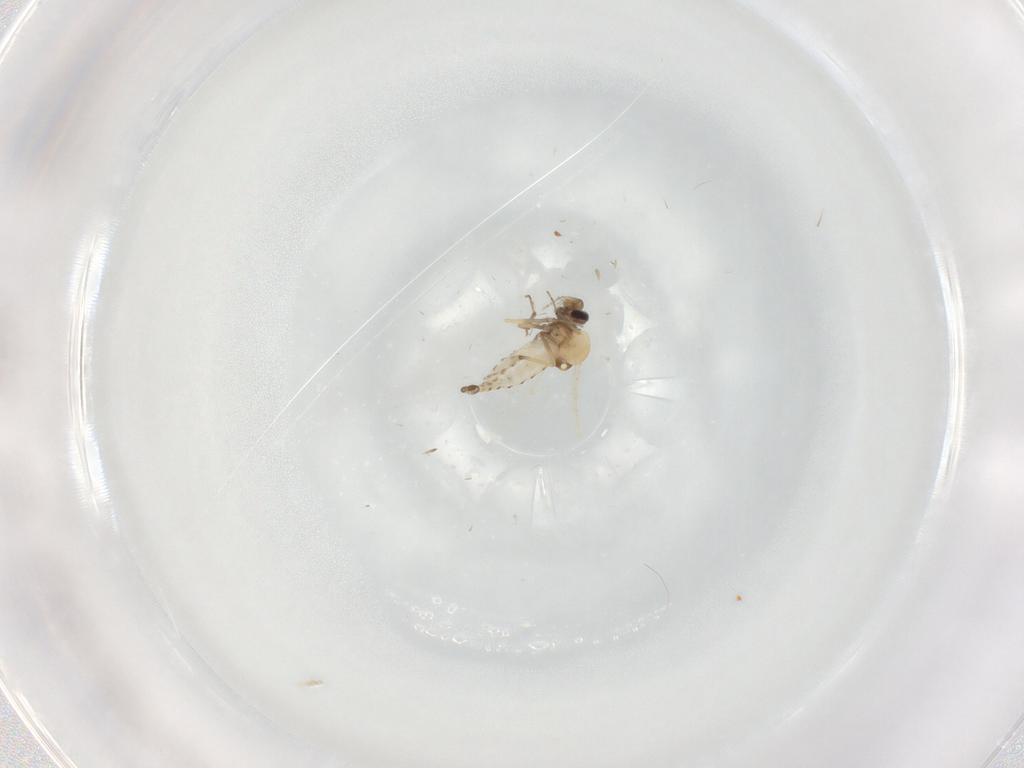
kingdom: Animalia
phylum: Arthropoda
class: Insecta
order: Diptera
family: Ceratopogonidae
